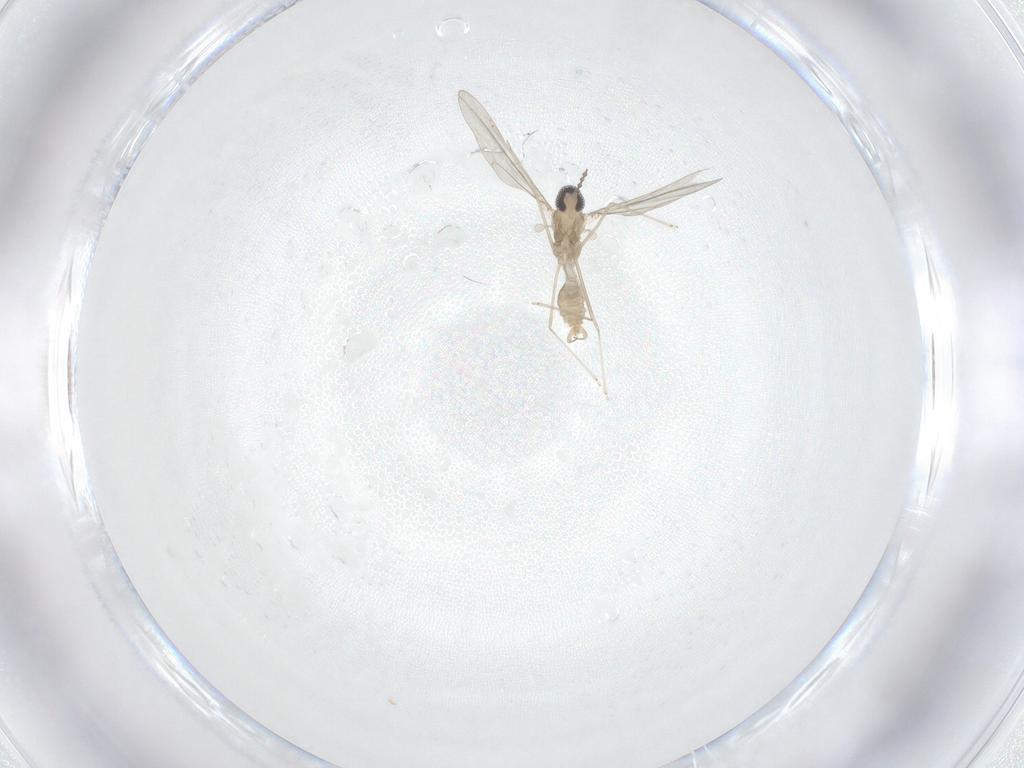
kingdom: Animalia
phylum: Arthropoda
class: Insecta
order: Diptera
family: Cecidomyiidae
